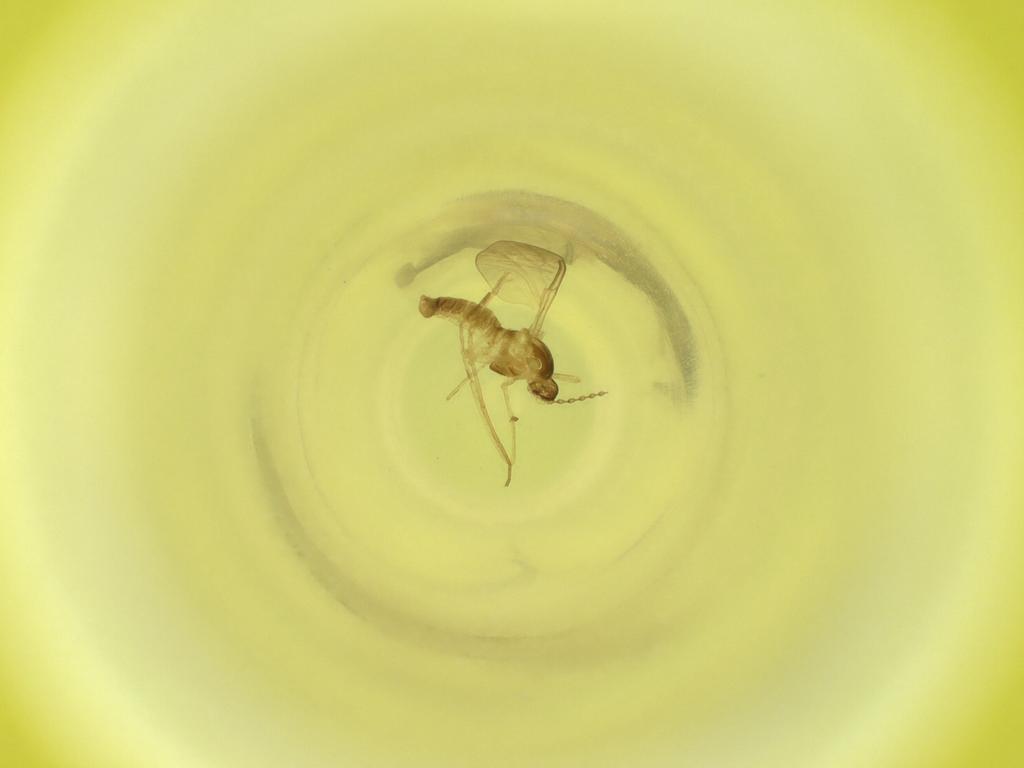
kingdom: Animalia
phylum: Arthropoda
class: Insecta
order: Diptera
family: Cecidomyiidae
